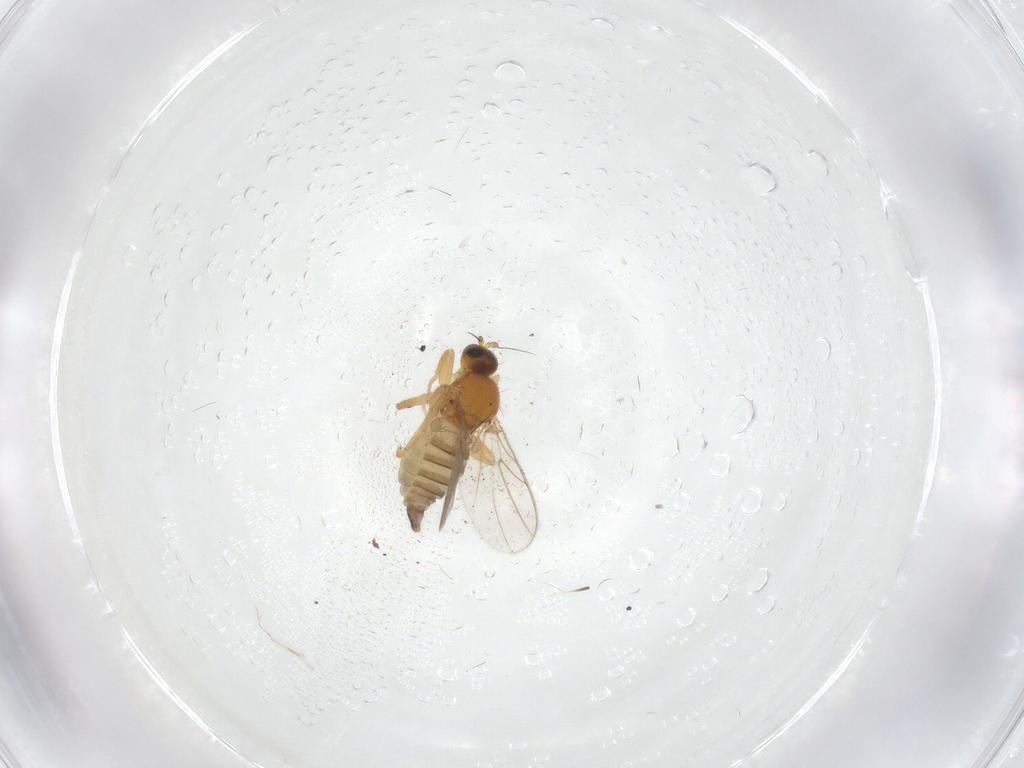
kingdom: Animalia
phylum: Arthropoda
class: Insecta
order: Diptera
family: Hybotidae
